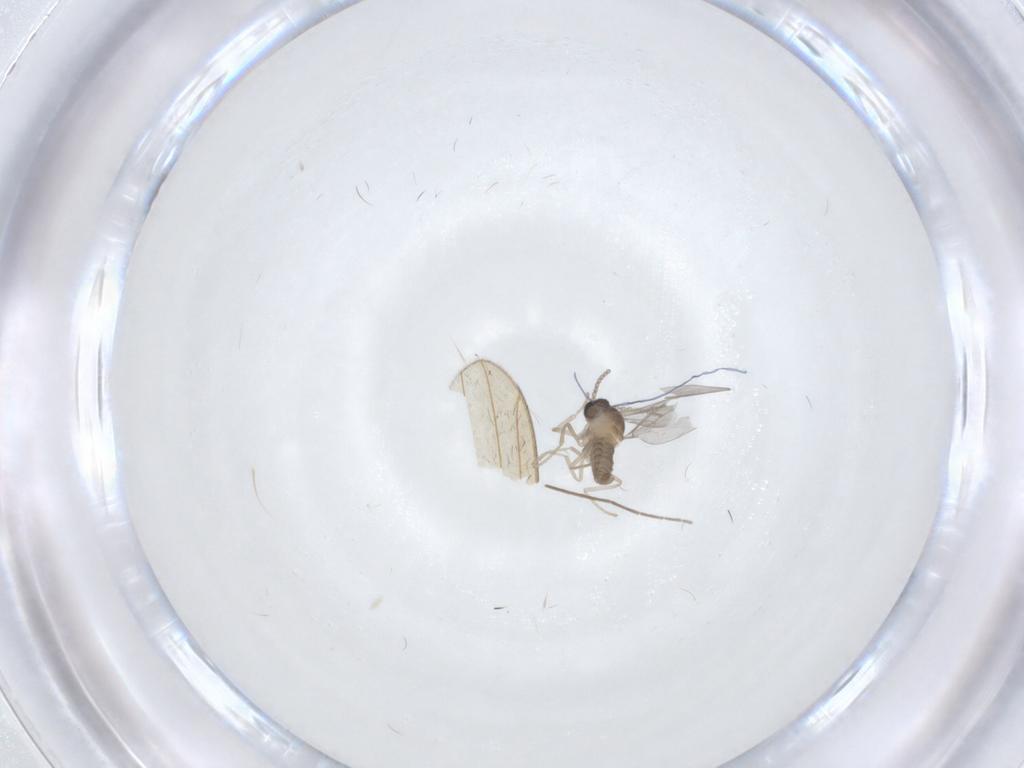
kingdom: Animalia
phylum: Arthropoda
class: Insecta
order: Diptera
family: Cecidomyiidae
